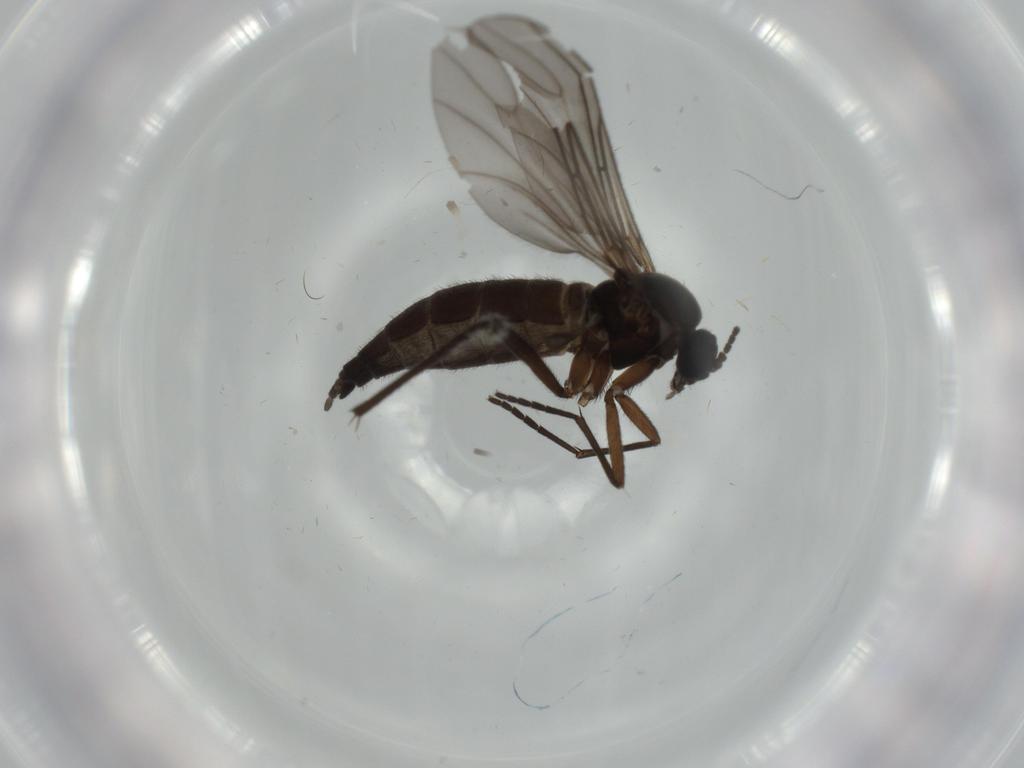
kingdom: Animalia
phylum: Arthropoda
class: Insecta
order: Diptera
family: Sciaridae
